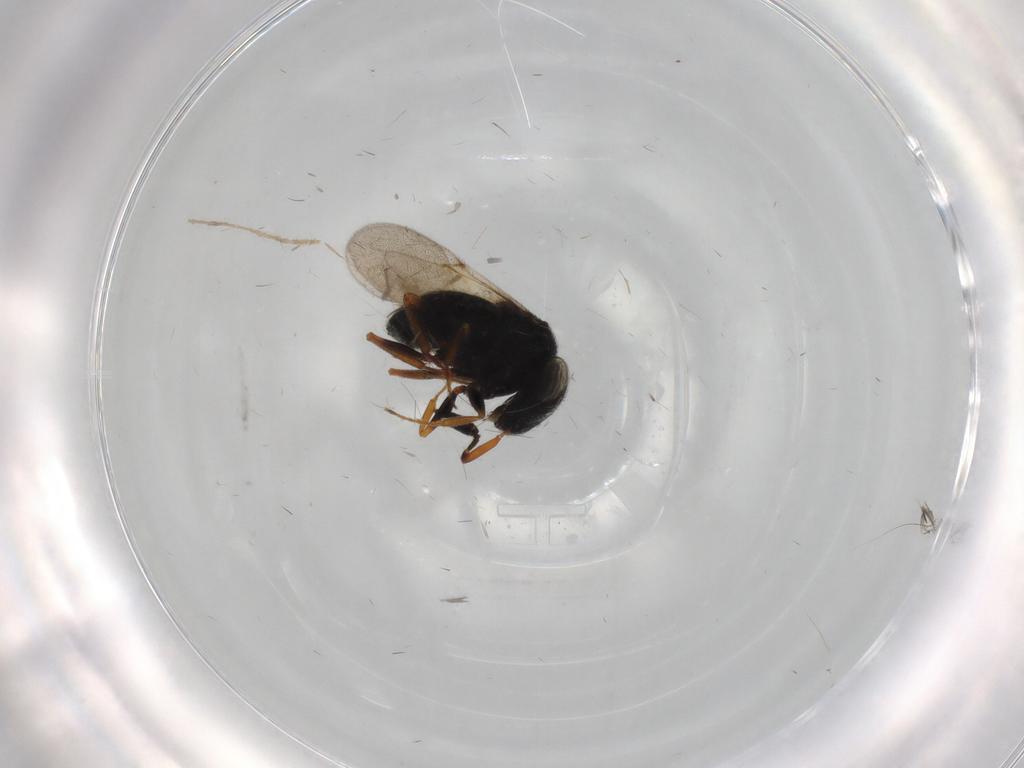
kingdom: Animalia
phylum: Arthropoda
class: Insecta
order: Hymenoptera
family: Scelionidae
